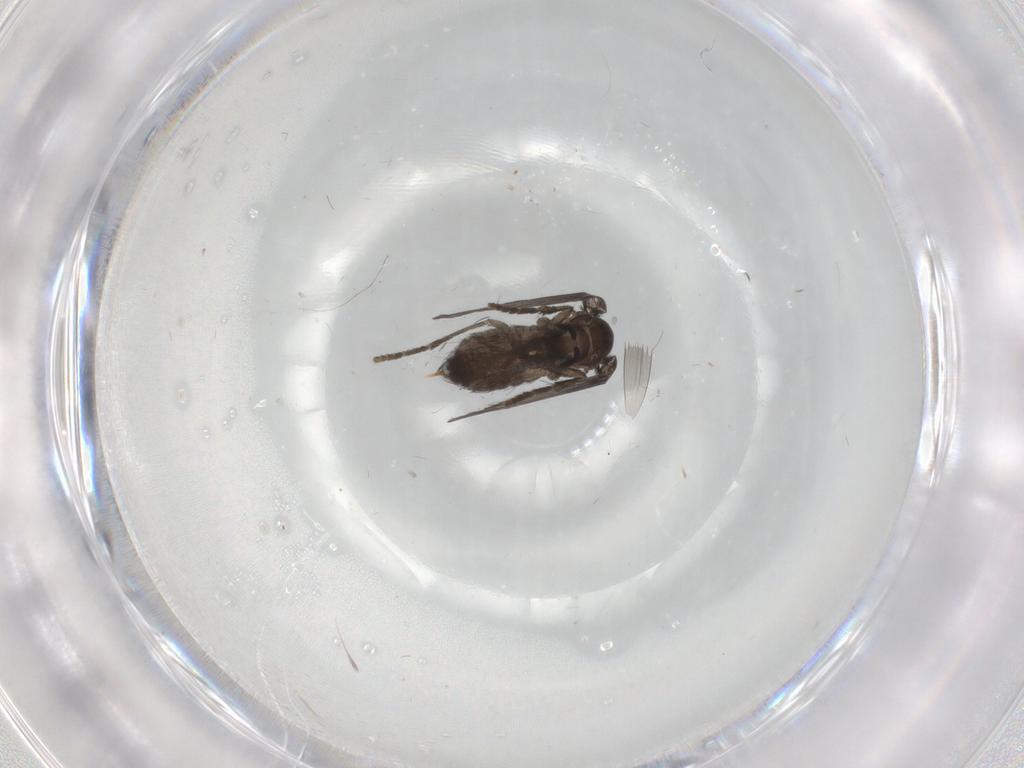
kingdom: Animalia
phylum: Arthropoda
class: Insecta
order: Diptera
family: Psychodidae
